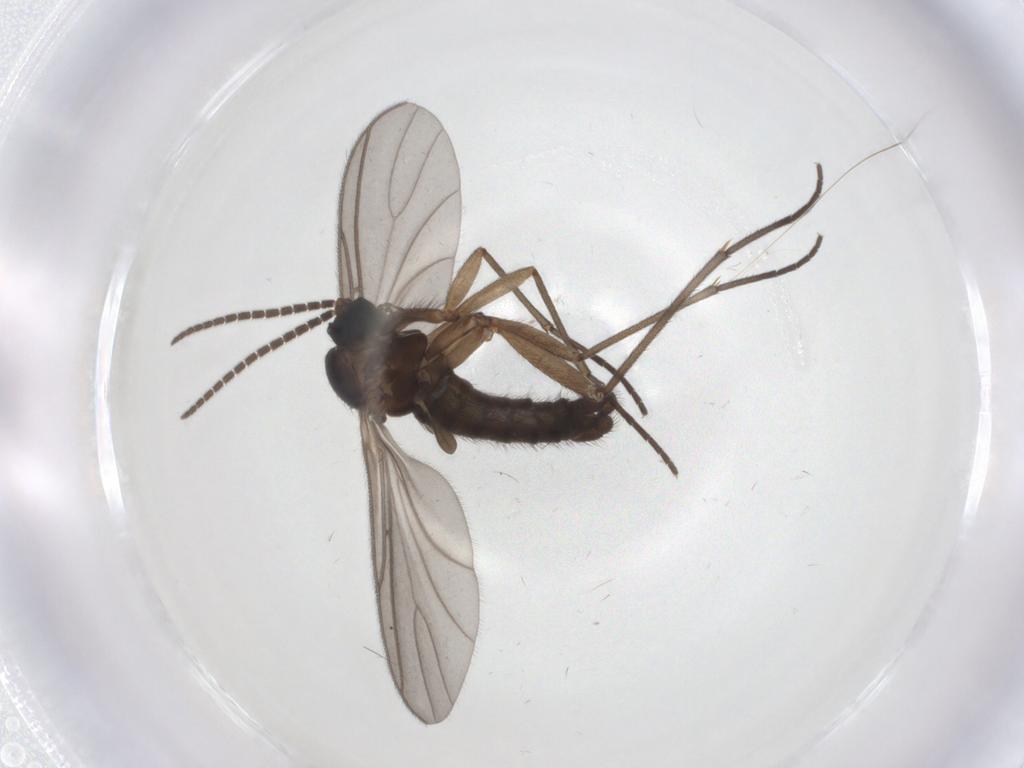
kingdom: Animalia
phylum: Arthropoda
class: Insecta
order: Diptera
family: Sciaridae
